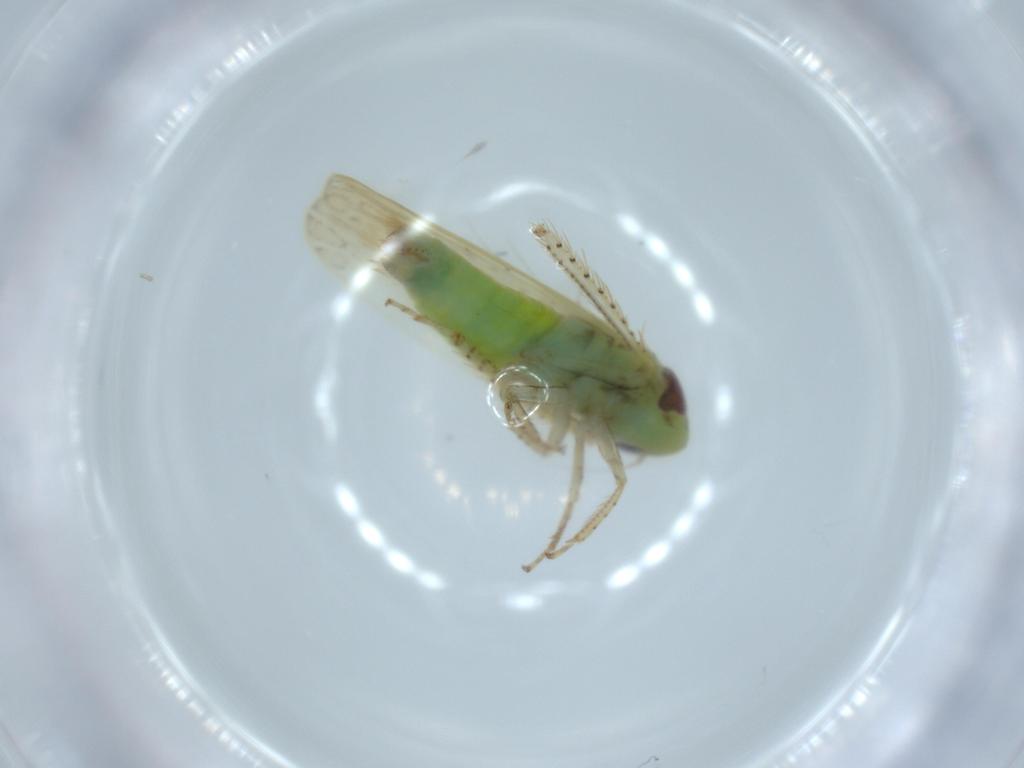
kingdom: Animalia
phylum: Arthropoda
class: Insecta
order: Hemiptera
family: Cicadellidae
